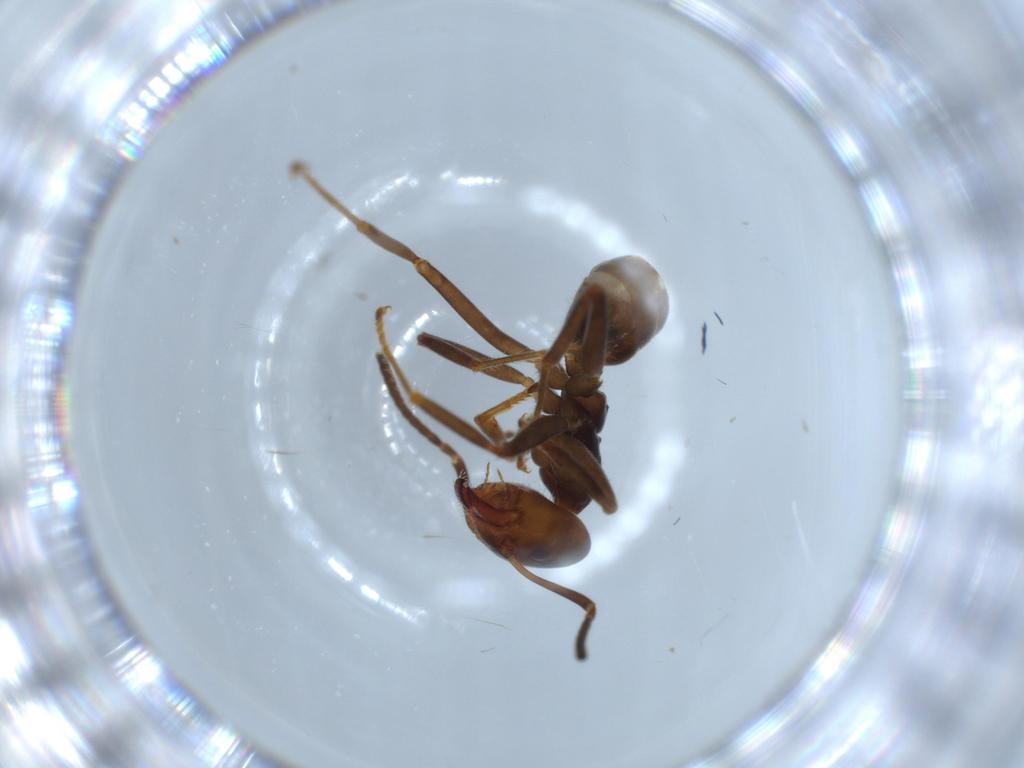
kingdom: Animalia
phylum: Arthropoda
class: Insecta
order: Hymenoptera
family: Formicidae
